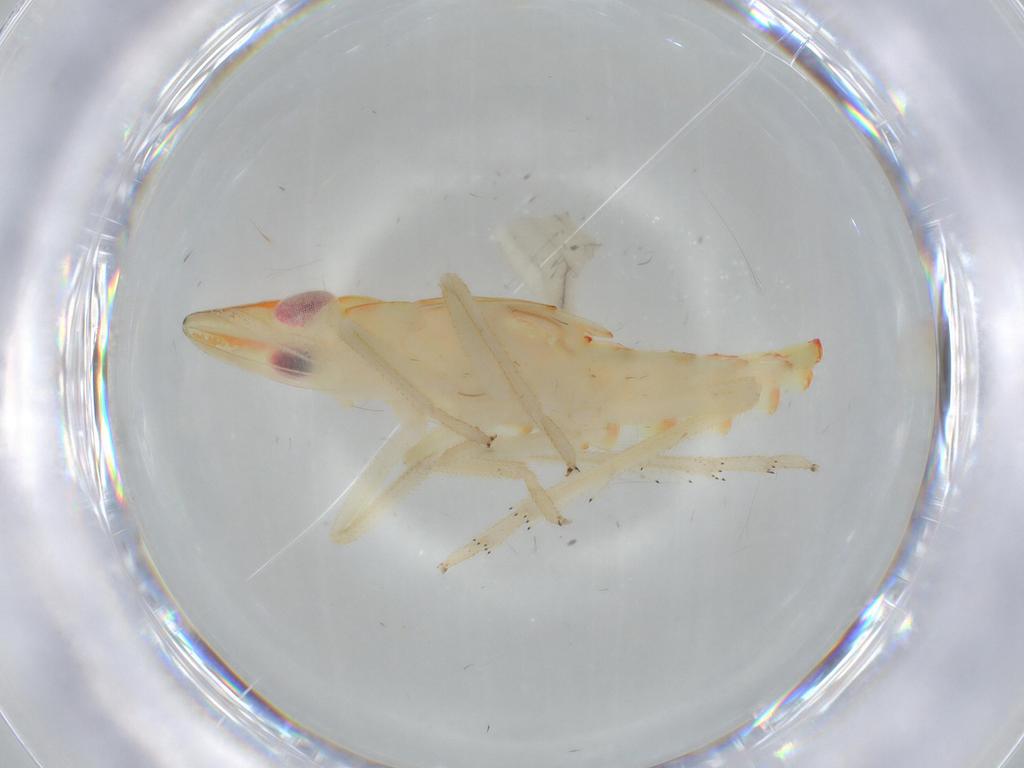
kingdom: Animalia
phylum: Arthropoda
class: Insecta
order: Hemiptera
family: Tropiduchidae
